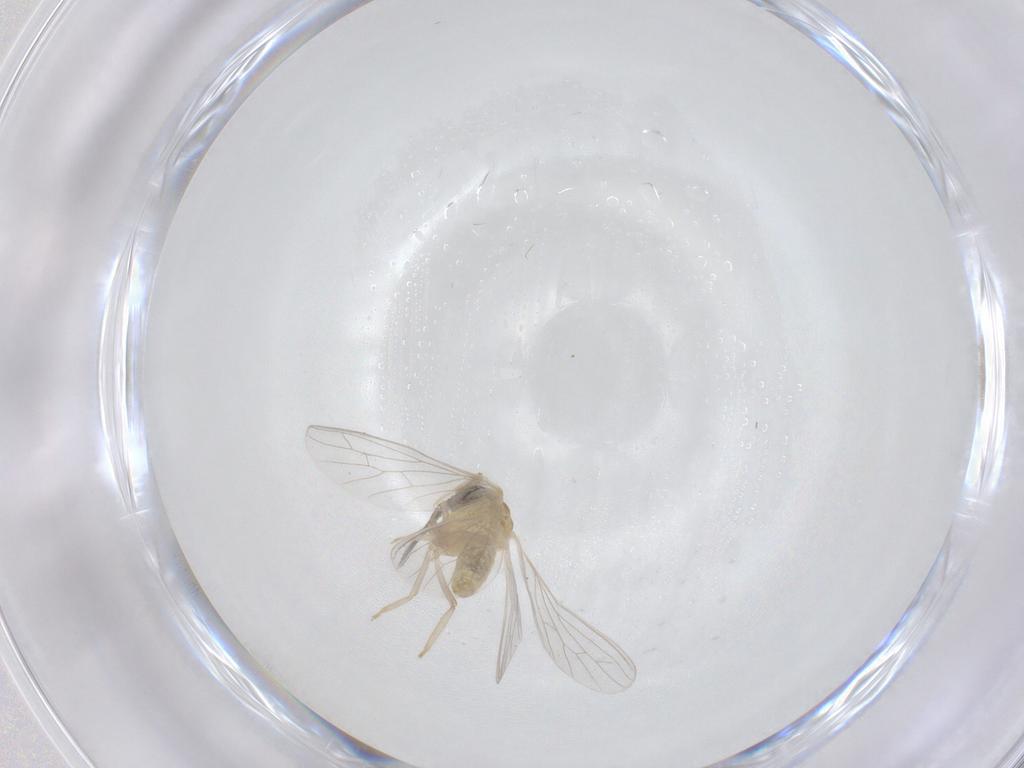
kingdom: Animalia
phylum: Arthropoda
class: Insecta
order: Neuroptera
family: Coniopterygidae
